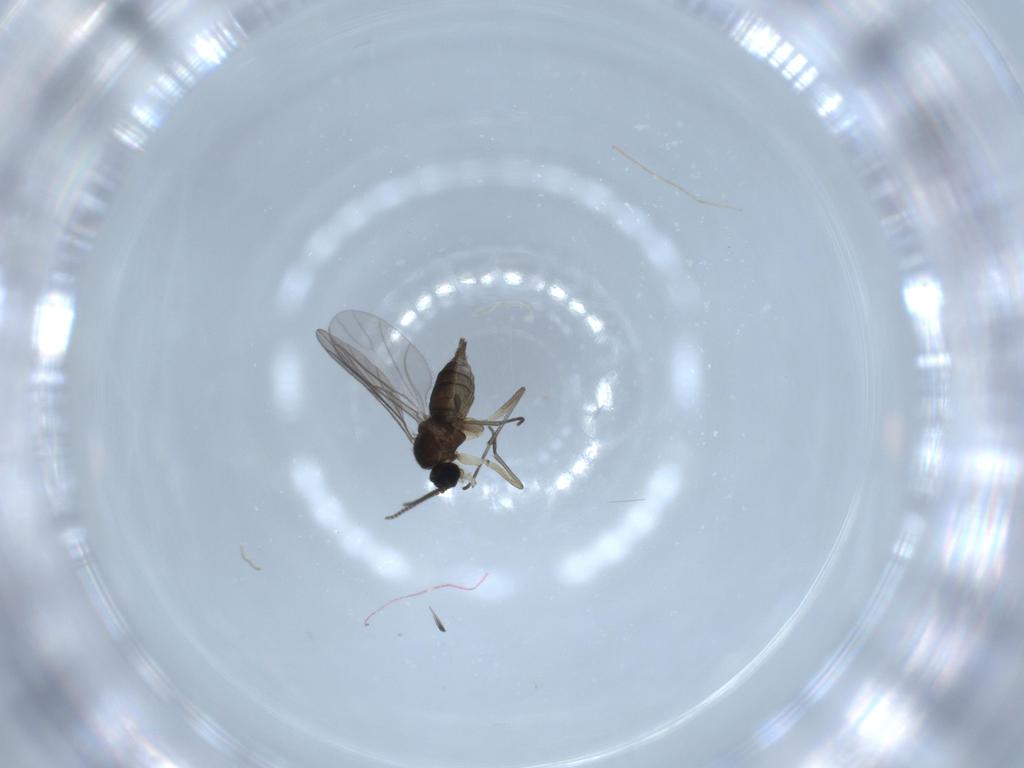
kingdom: Animalia
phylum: Arthropoda
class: Insecta
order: Diptera
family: Sciaridae
